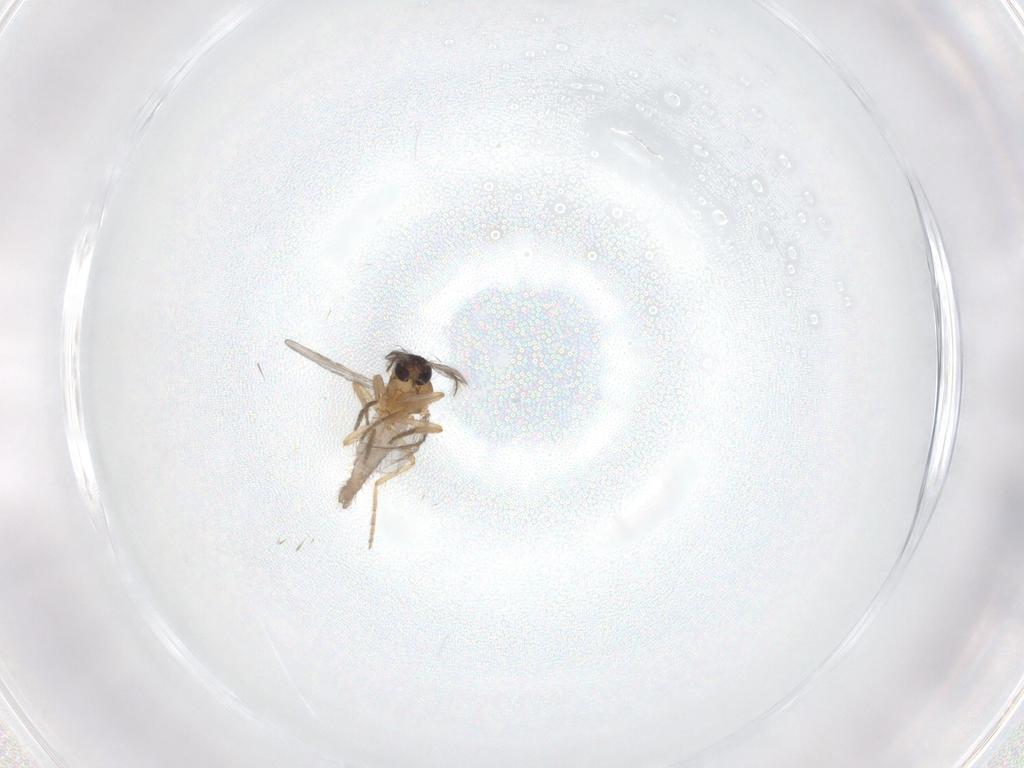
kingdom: Animalia
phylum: Arthropoda
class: Insecta
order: Diptera
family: Ceratopogonidae
